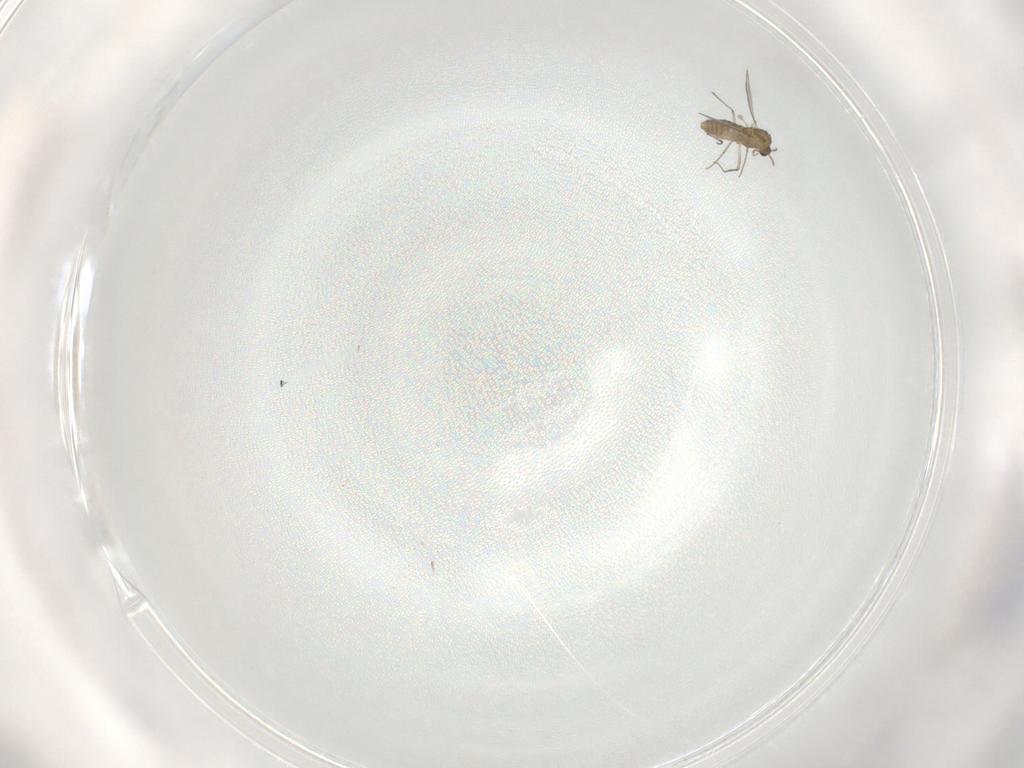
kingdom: Animalia
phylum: Arthropoda
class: Insecta
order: Diptera
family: Chironomidae
